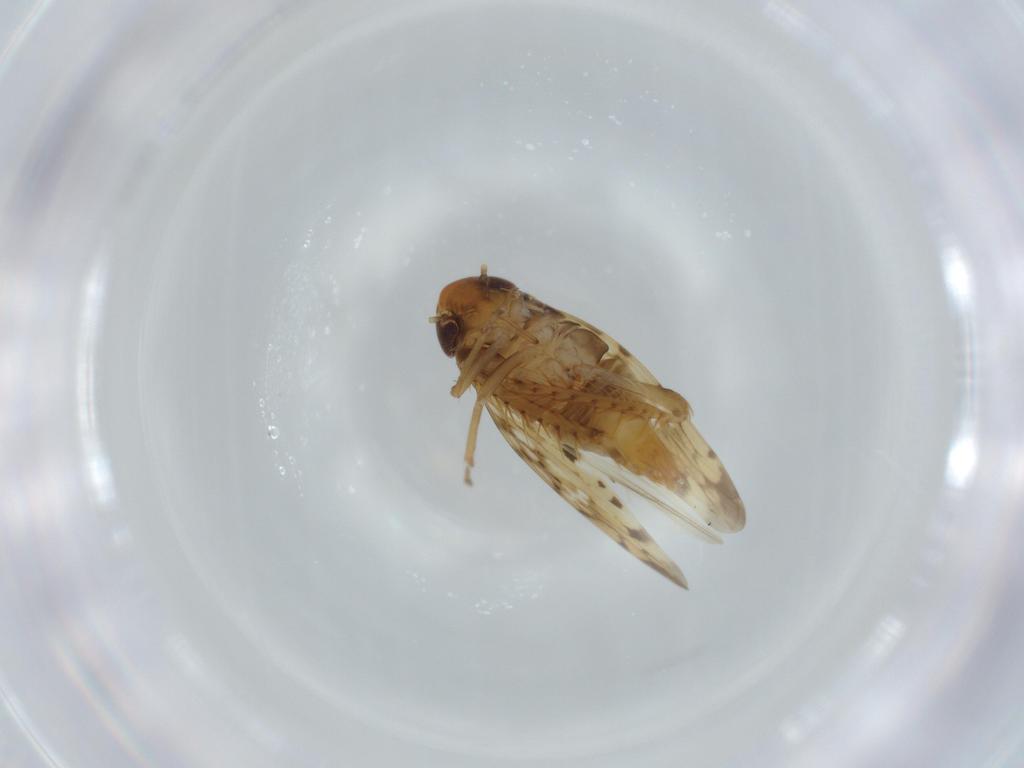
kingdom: Animalia
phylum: Arthropoda
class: Insecta
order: Hemiptera
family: Cicadellidae
